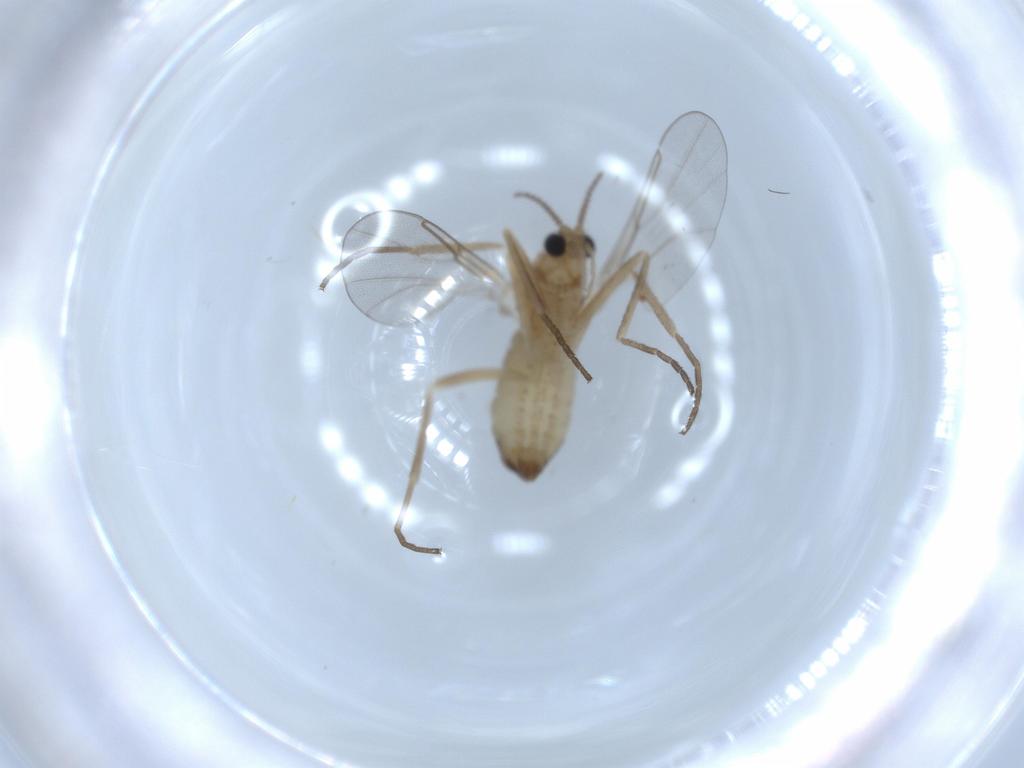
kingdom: Animalia
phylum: Arthropoda
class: Insecta
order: Diptera
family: Cecidomyiidae
